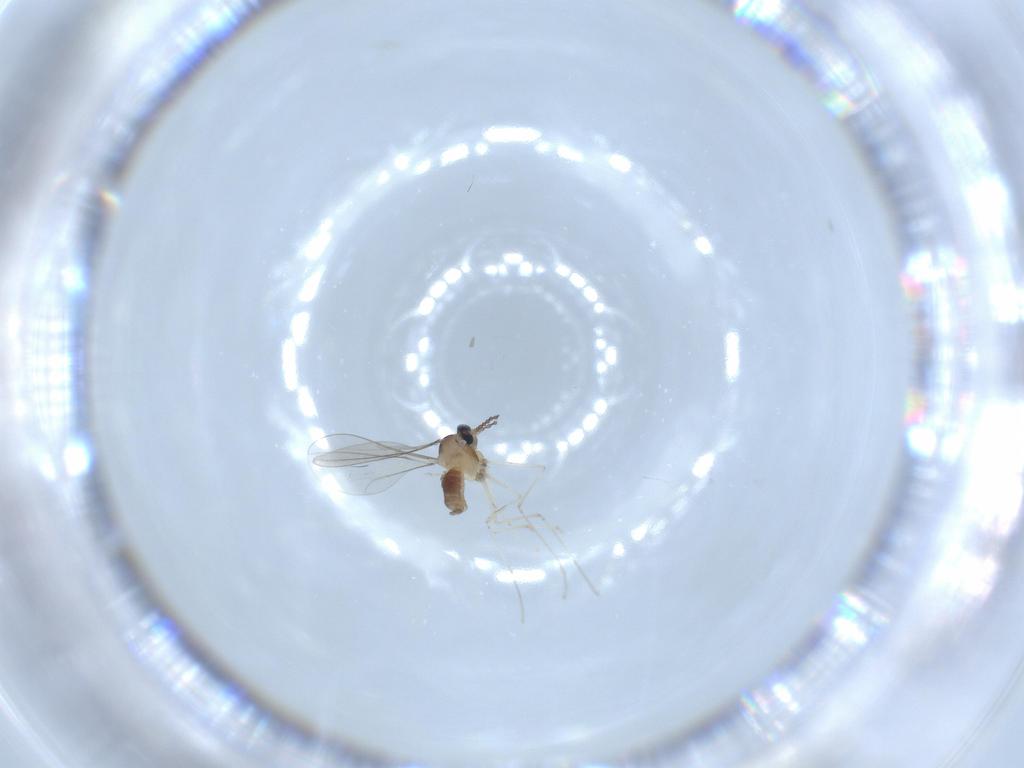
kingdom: Animalia
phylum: Arthropoda
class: Insecta
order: Diptera
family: Cecidomyiidae
